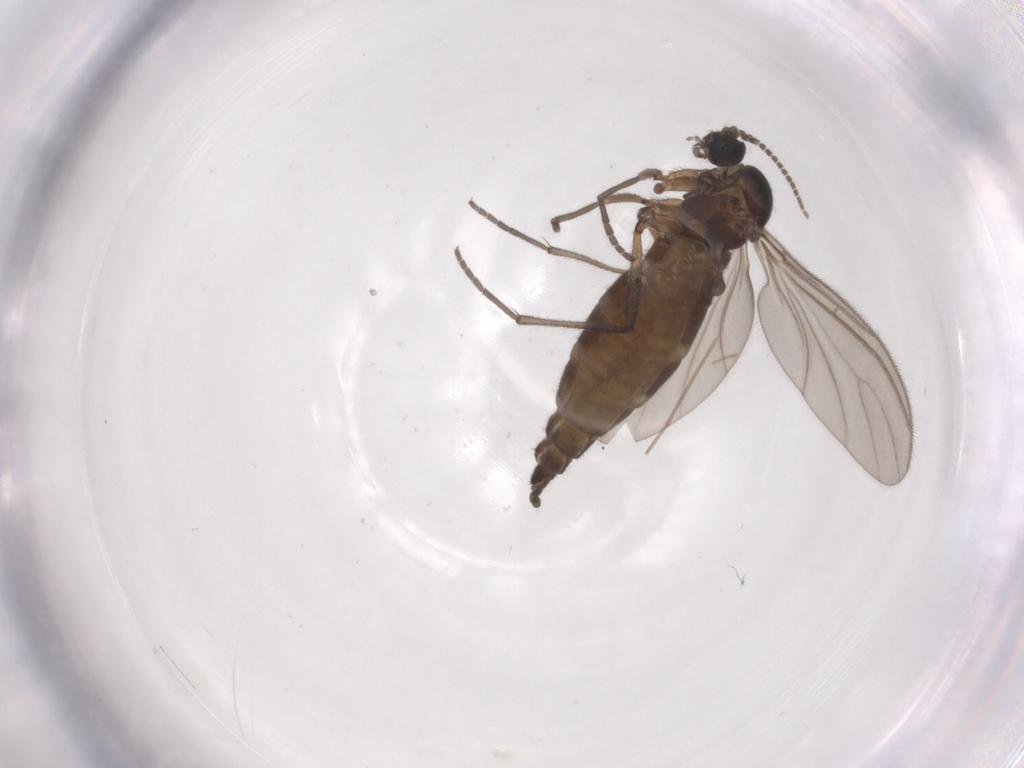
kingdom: Animalia
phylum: Arthropoda
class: Insecta
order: Diptera
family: Sciaridae
